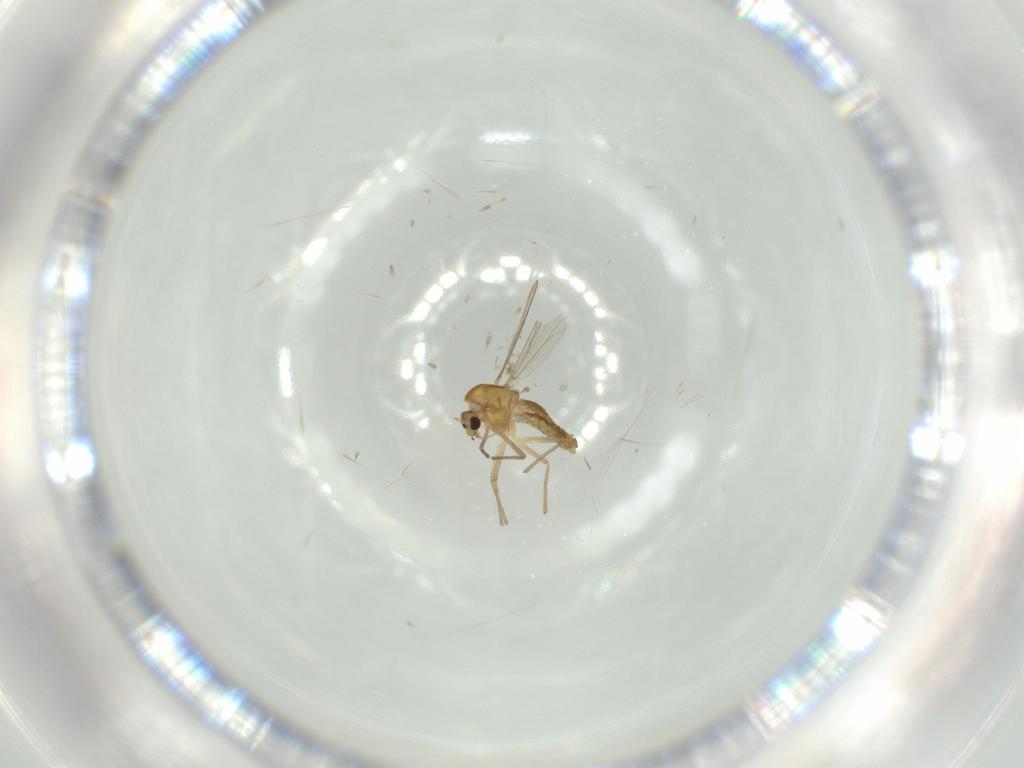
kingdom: Animalia
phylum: Arthropoda
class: Insecta
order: Diptera
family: Chironomidae
